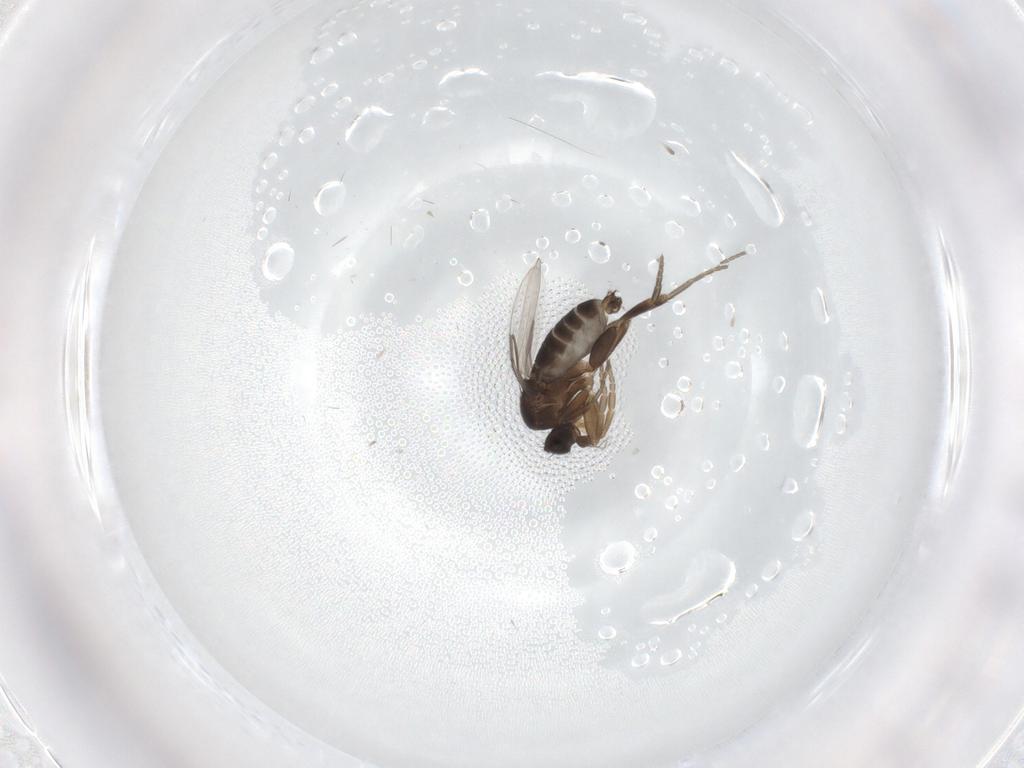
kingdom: Animalia
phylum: Arthropoda
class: Insecta
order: Diptera
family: Phoridae
